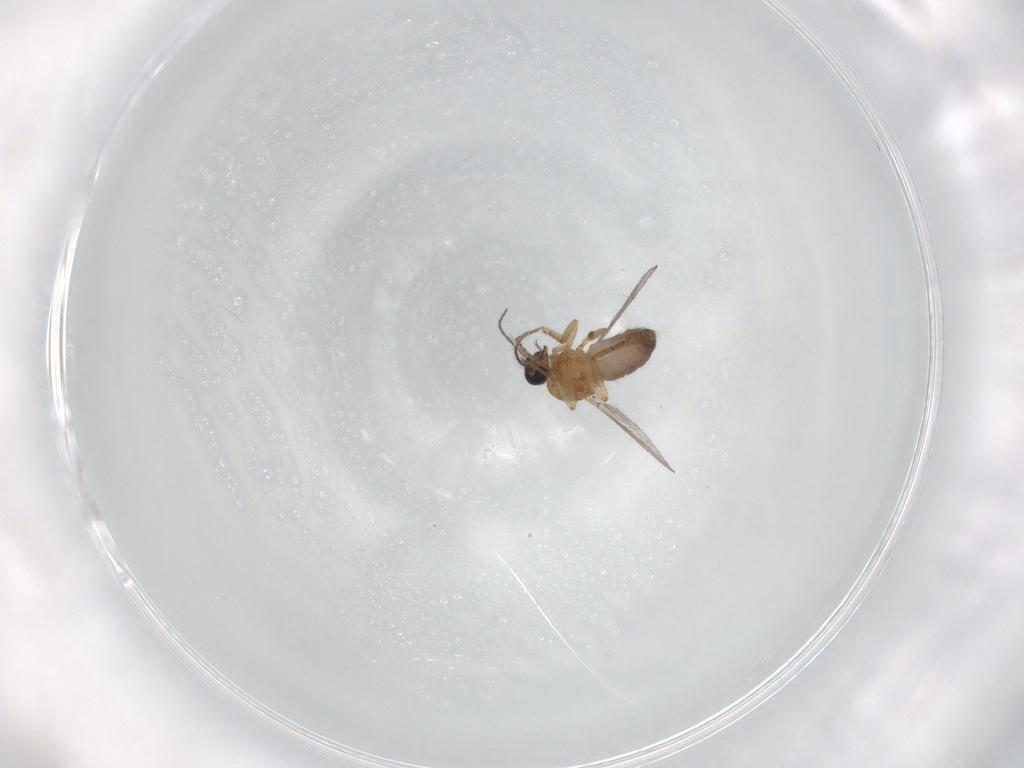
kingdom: Animalia
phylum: Arthropoda
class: Insecta
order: Diptera
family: Chironomidae
